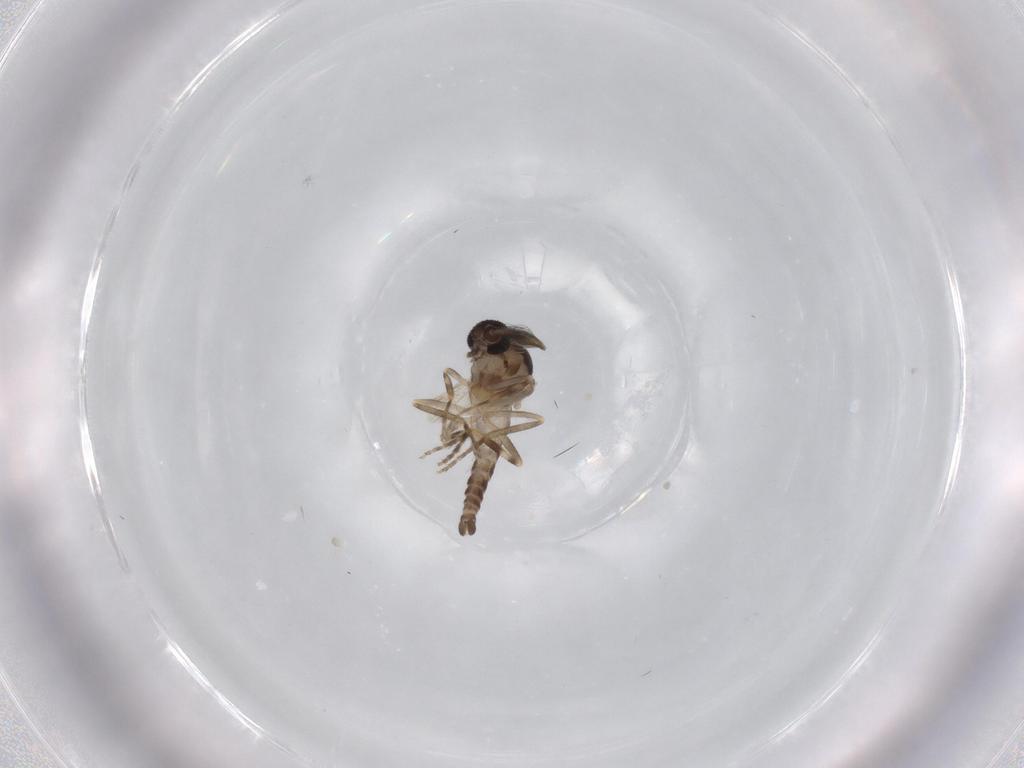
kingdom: Animalia
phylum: Arthropoda
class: Insecta
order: Diptera
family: Ceratopogonidae
